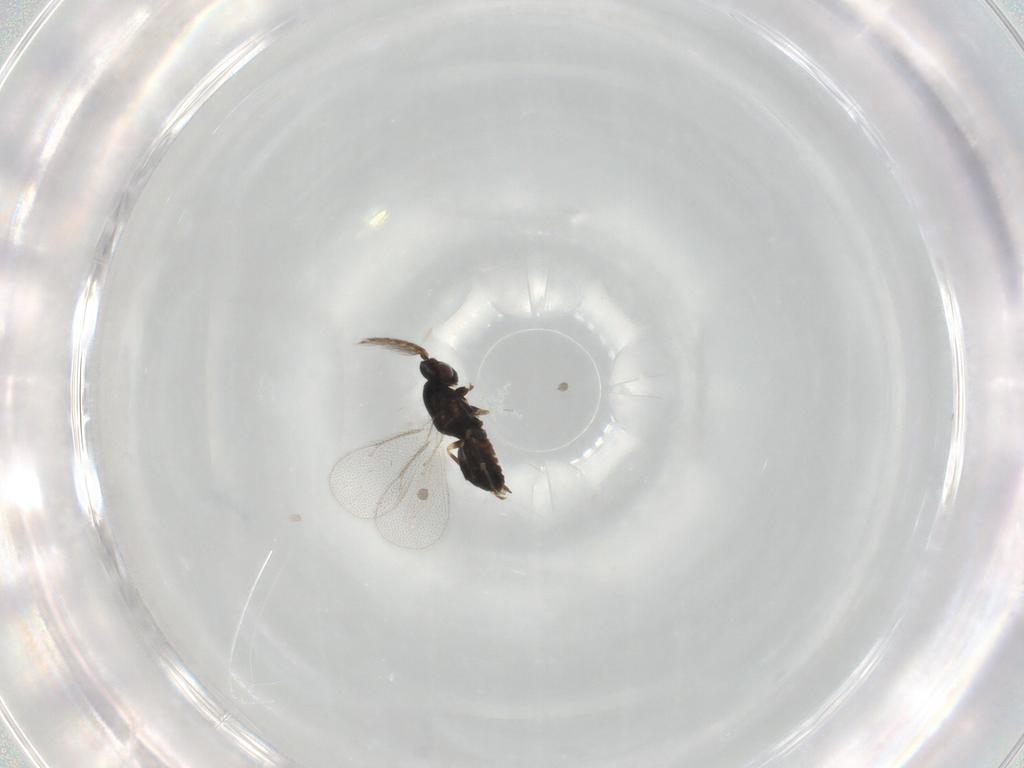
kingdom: Animalia
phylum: Arthropoda
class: Insecta
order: Hymenoptera
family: Eulophidae
